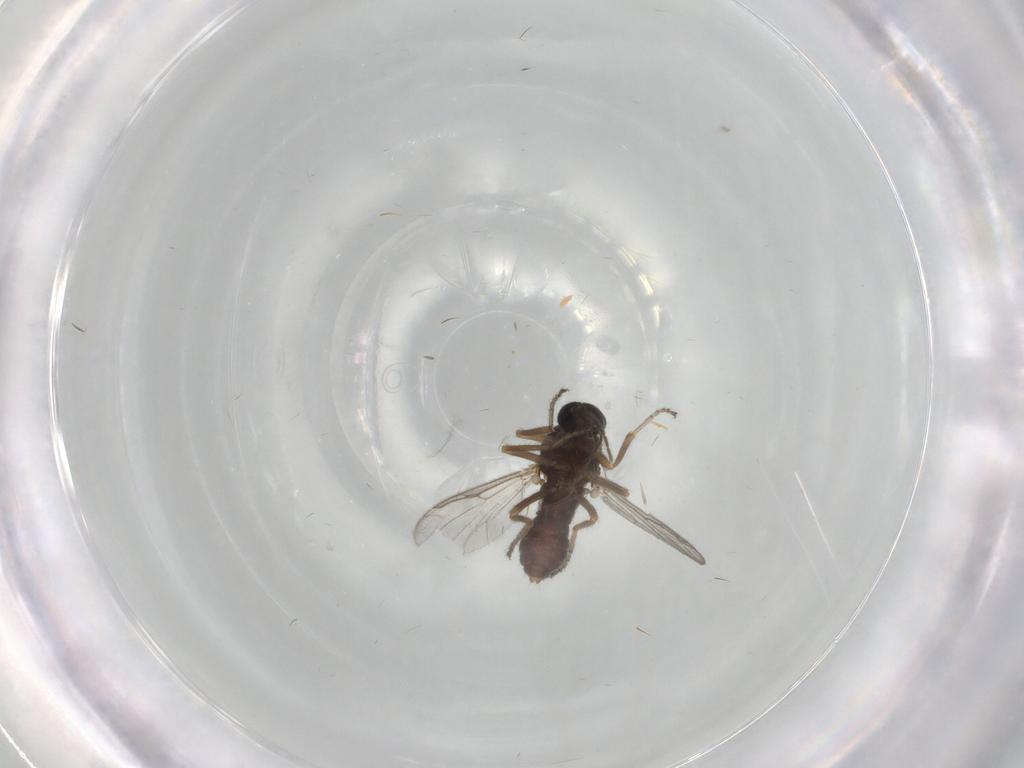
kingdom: Animalia
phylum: Arthropoda
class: Insecta
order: Diptera
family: Ceratopogonidae
